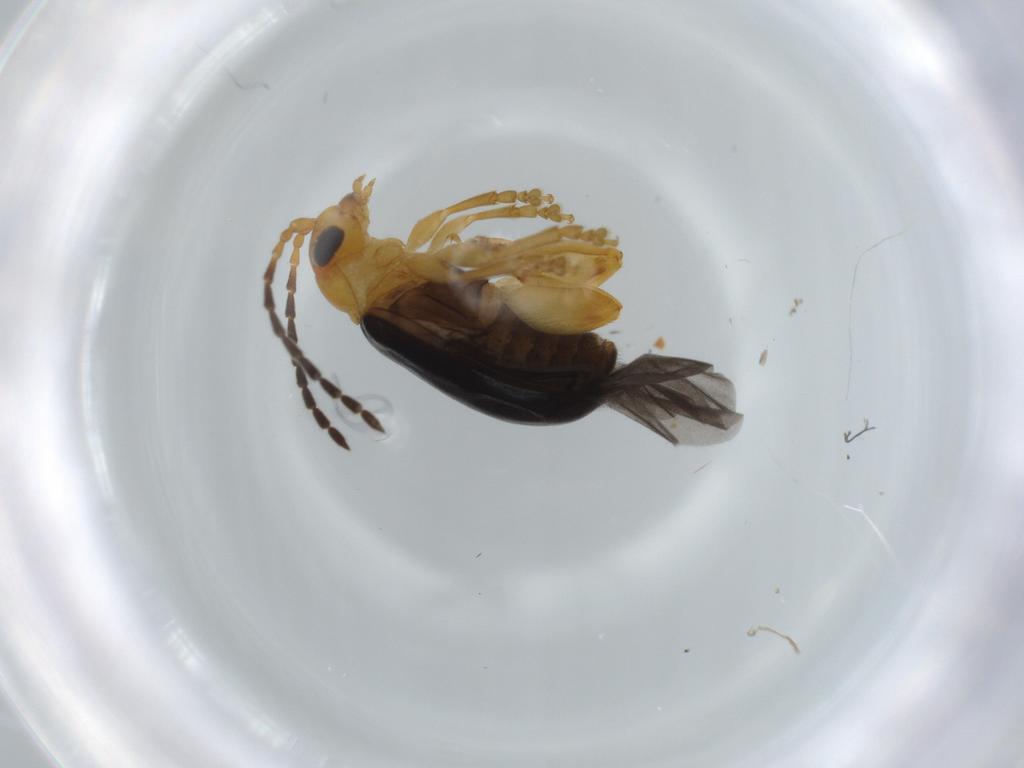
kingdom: Animalia
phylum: Arthropoda
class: Insecta
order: Coleoptera
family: Chrysomelidae
